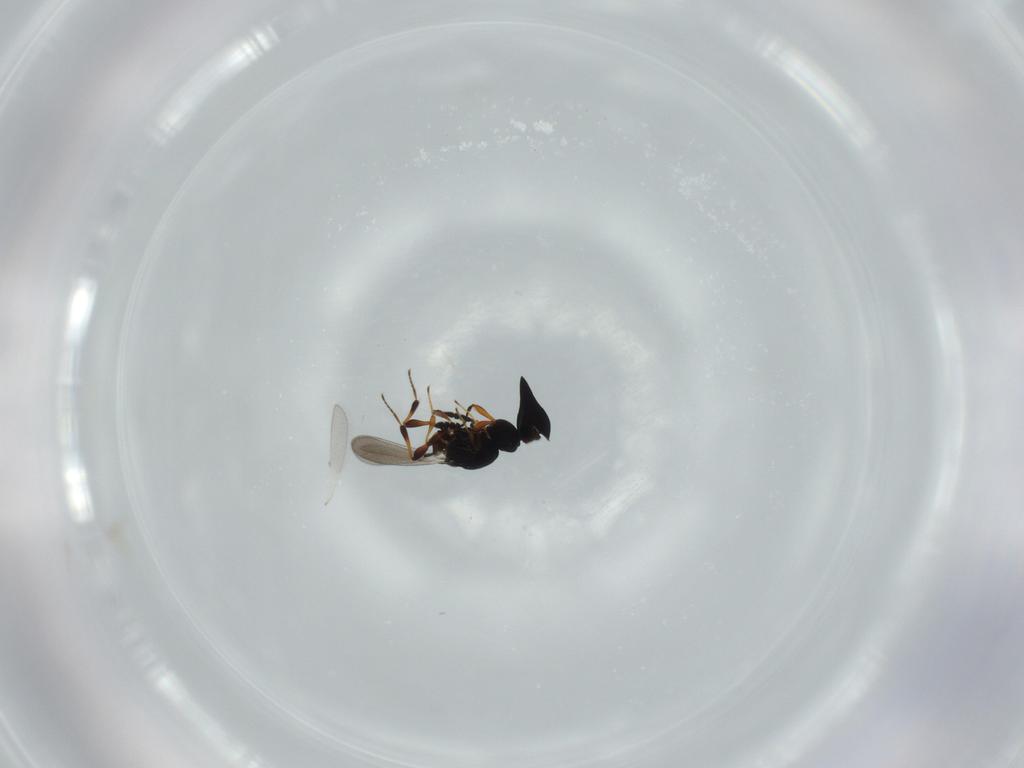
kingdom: Animalia
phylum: Arthropoda
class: Insecta
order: Hymenoptera
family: Platygastridae
